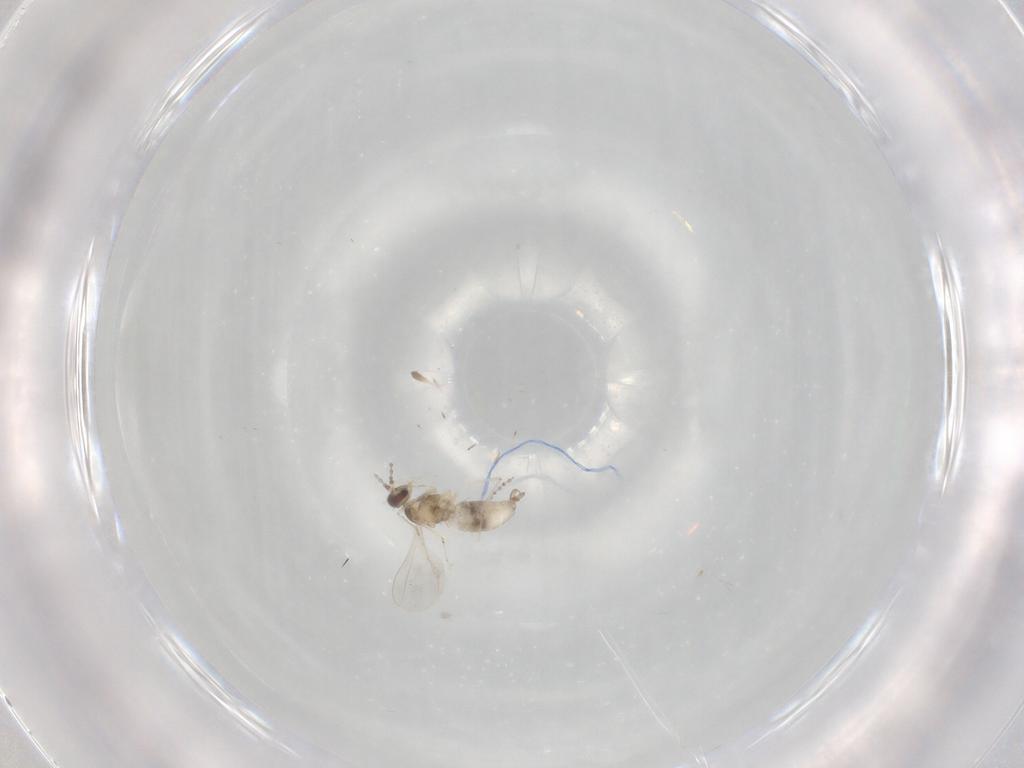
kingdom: Animalia
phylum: Arthropoda
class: Insecta
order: Diptera
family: Cecidomyiidae
